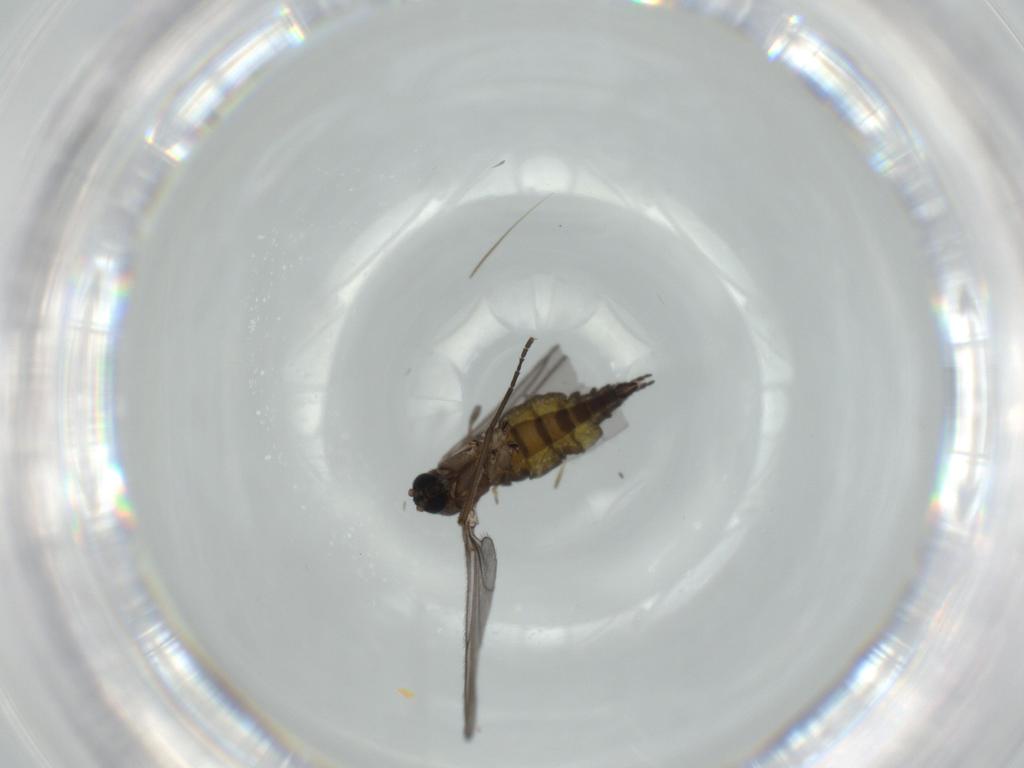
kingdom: Animalia
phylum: Arthropoda
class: Insecta
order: Diptera
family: Sciaridae
